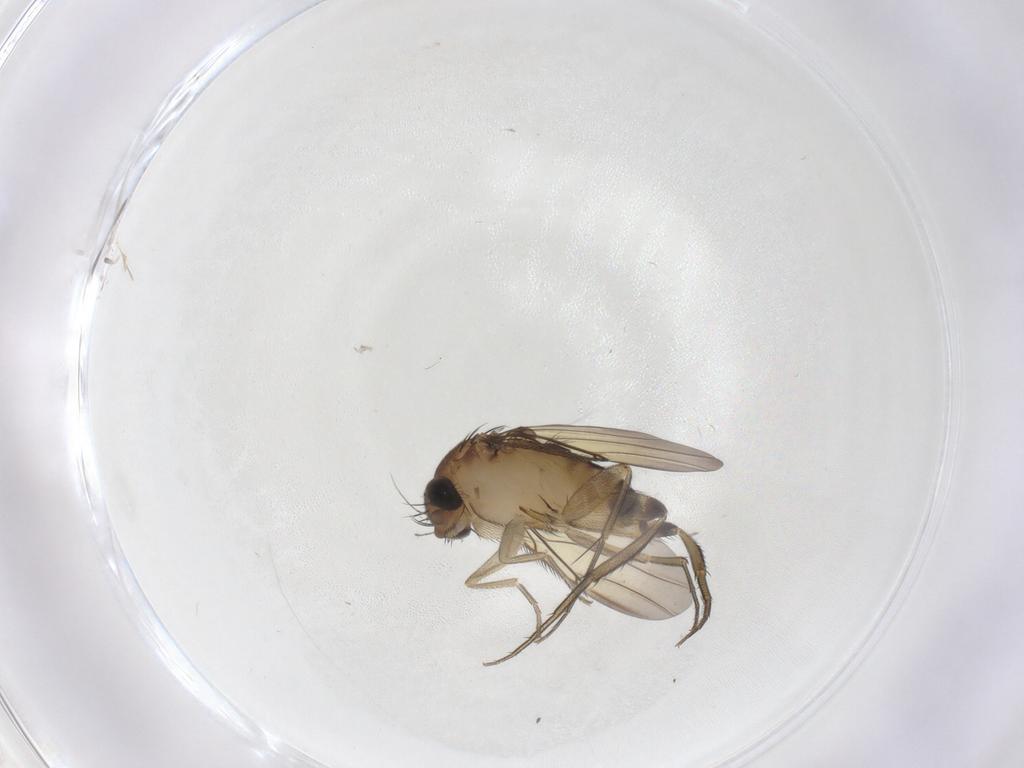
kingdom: Animalia
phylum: Arthropoda
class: Insecta
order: Diptera
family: Phoridae
